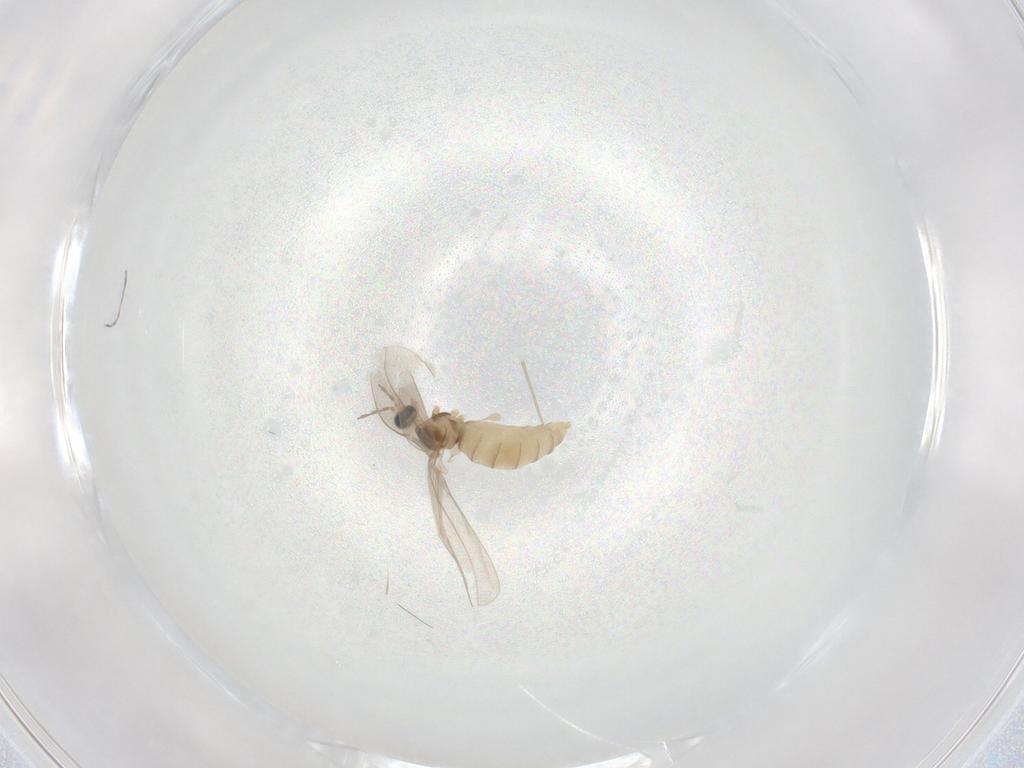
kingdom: Animalia
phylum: Arthropoda
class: Insecta
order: Diptera
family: Cecidomyiidae
